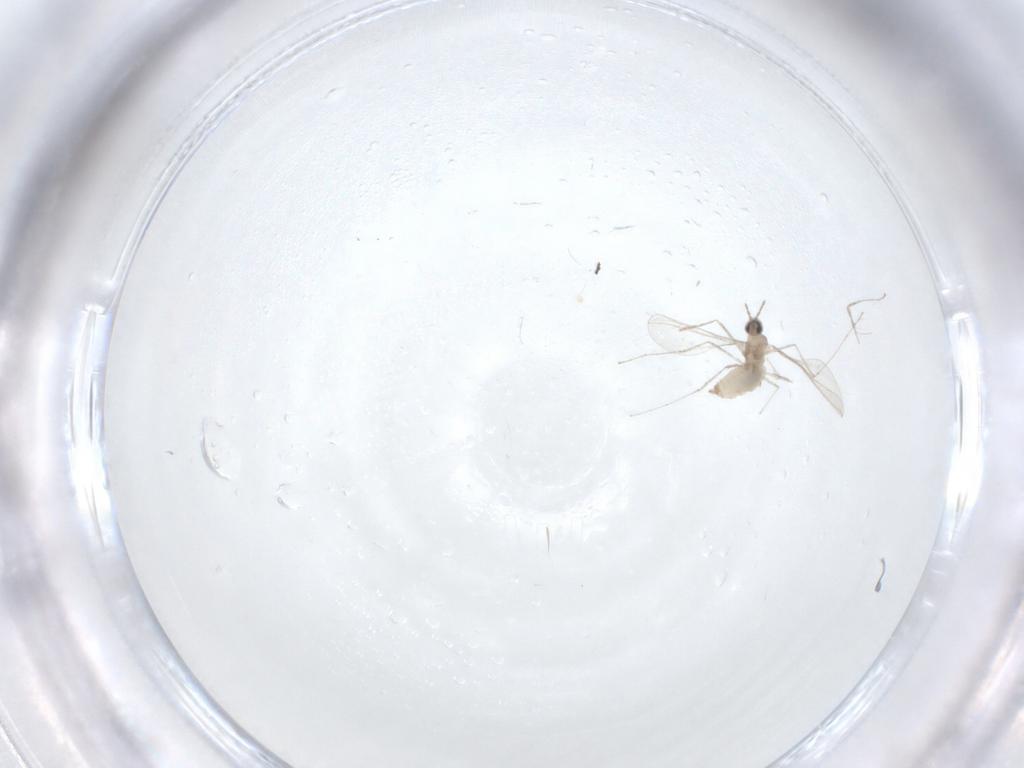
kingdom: Animalia
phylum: Arthropoda
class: Insecta
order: Diptera
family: Psychodidae
